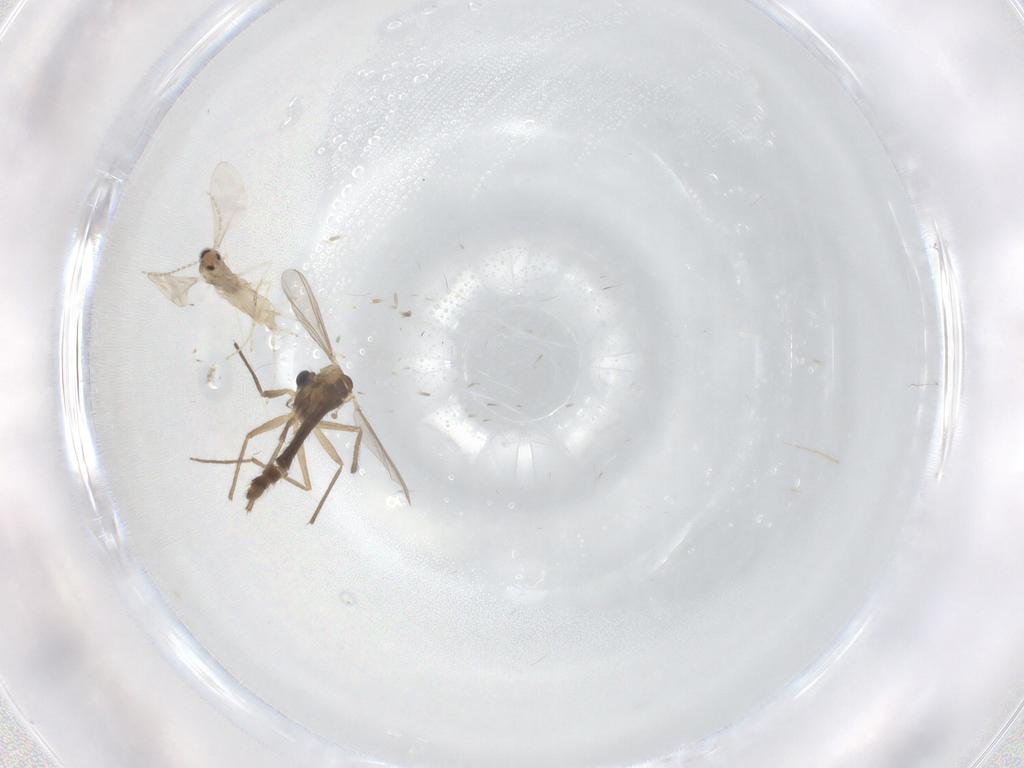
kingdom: Animalia
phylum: Arthropoda
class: Insecta
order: Diptera
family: Chironomidae
